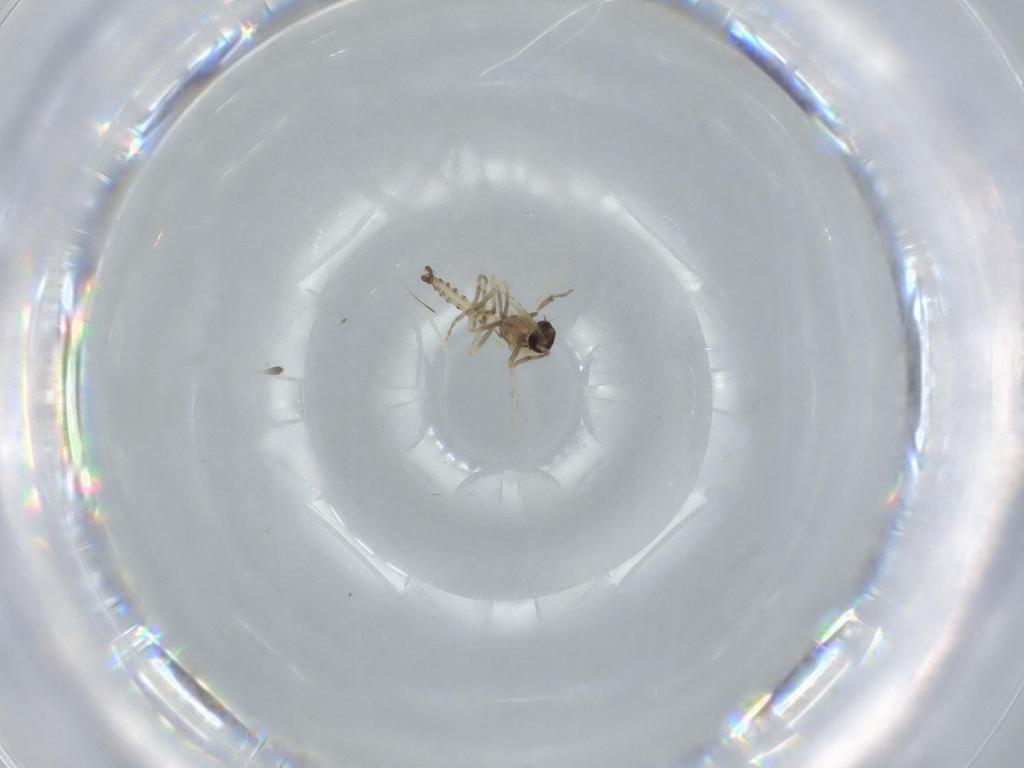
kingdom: Animalia
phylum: Arthropoda
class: Insecta
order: Diptera
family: Ceratopogonidae
